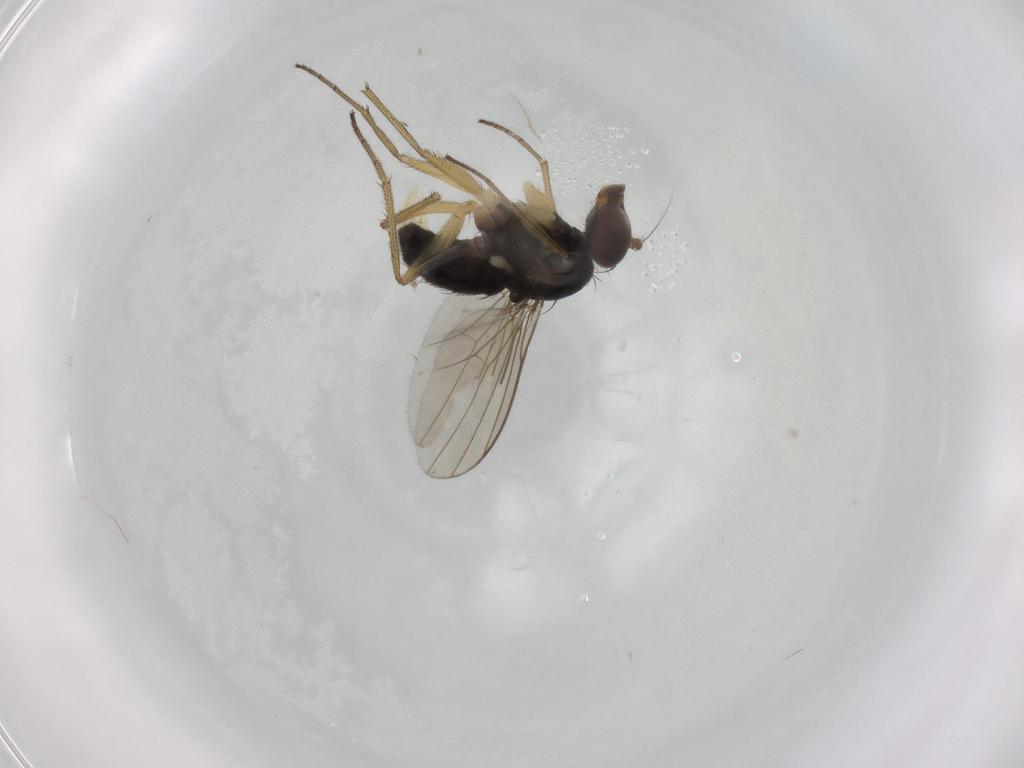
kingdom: Animalia
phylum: Arthropoda
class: Insecta
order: Diptera
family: Dolichopodidae
